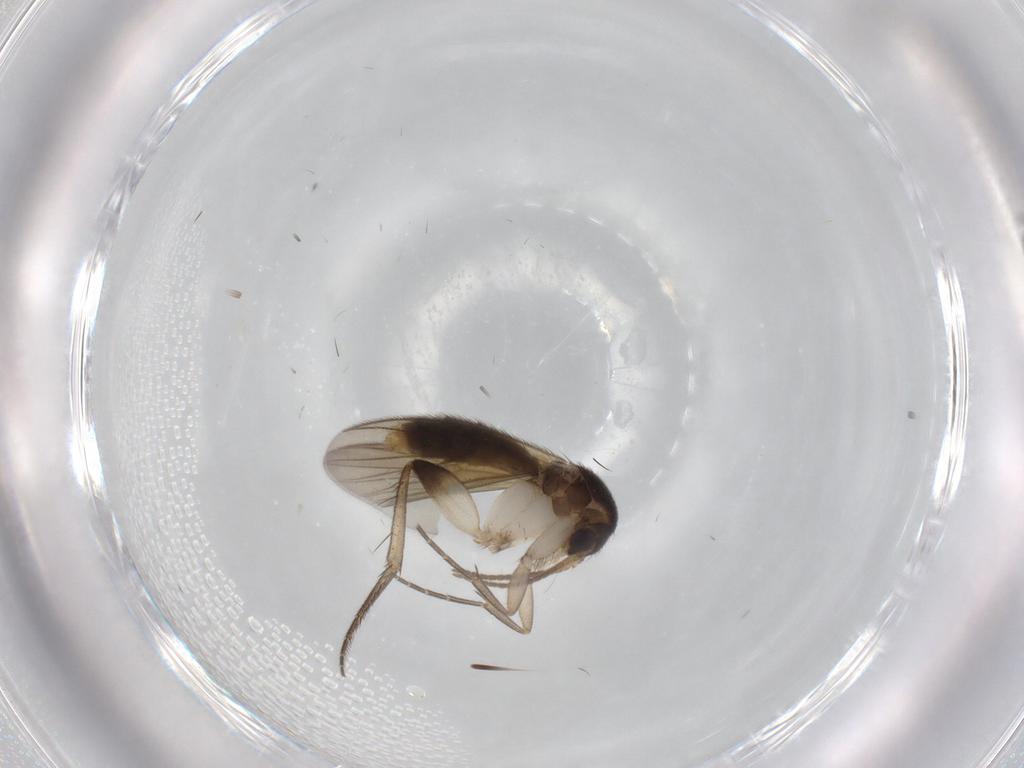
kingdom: Animalia
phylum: Arthropoda
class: Insecta
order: Diptera
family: Mycetophilidae
